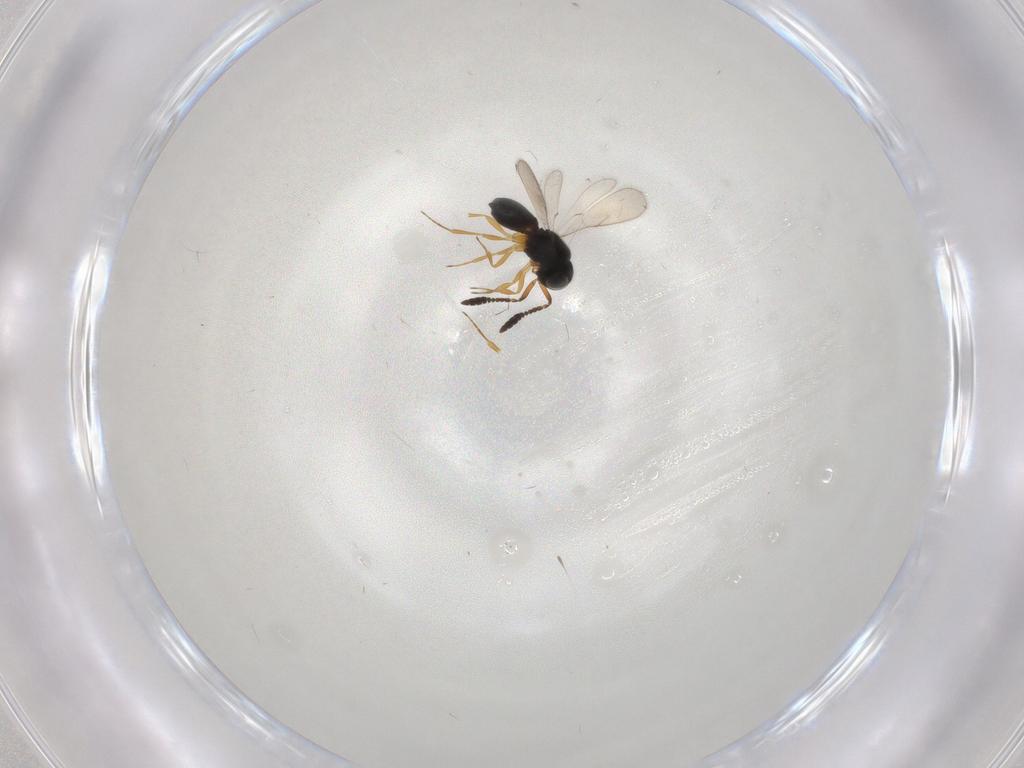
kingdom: Animalia
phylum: Arthropoda
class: Insecta
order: Hymenoptera
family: Scelionidae
